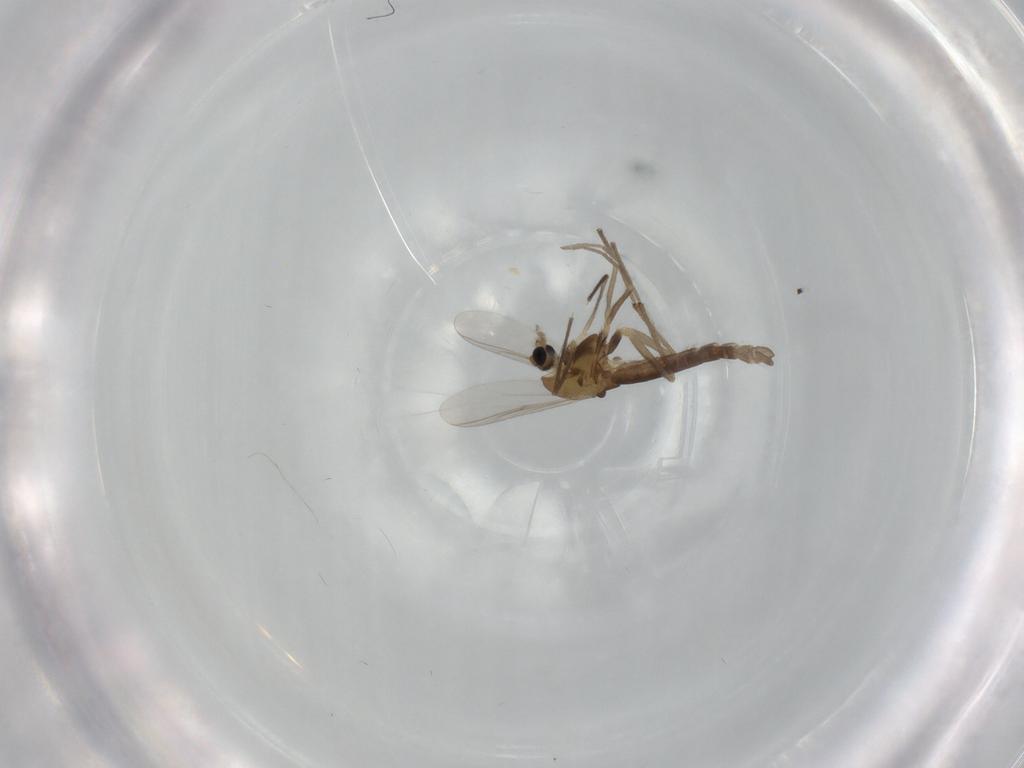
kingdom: Animalia
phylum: Arthropoda
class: Insecta
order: Diptera
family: Chironomidae
